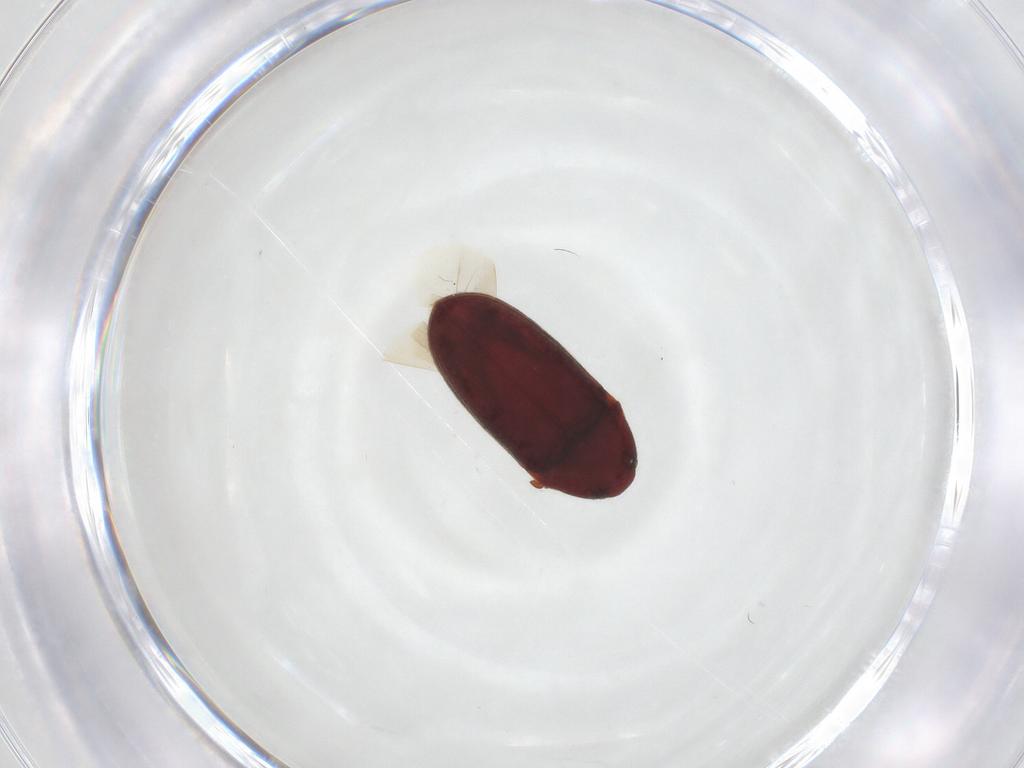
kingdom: Animalia
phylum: Arthropoda
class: Insecta
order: Coleoptera
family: Throscidae
